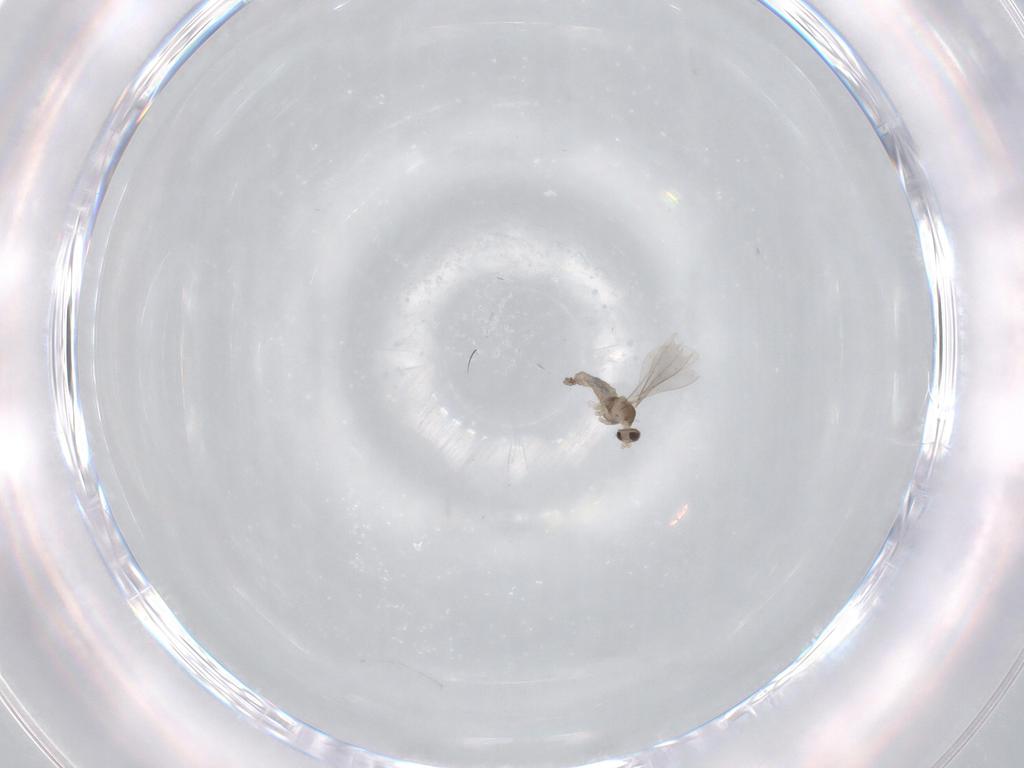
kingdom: Animalia
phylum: Arthropoda
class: Insecta
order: Diptera
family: Cecidomyiidae
